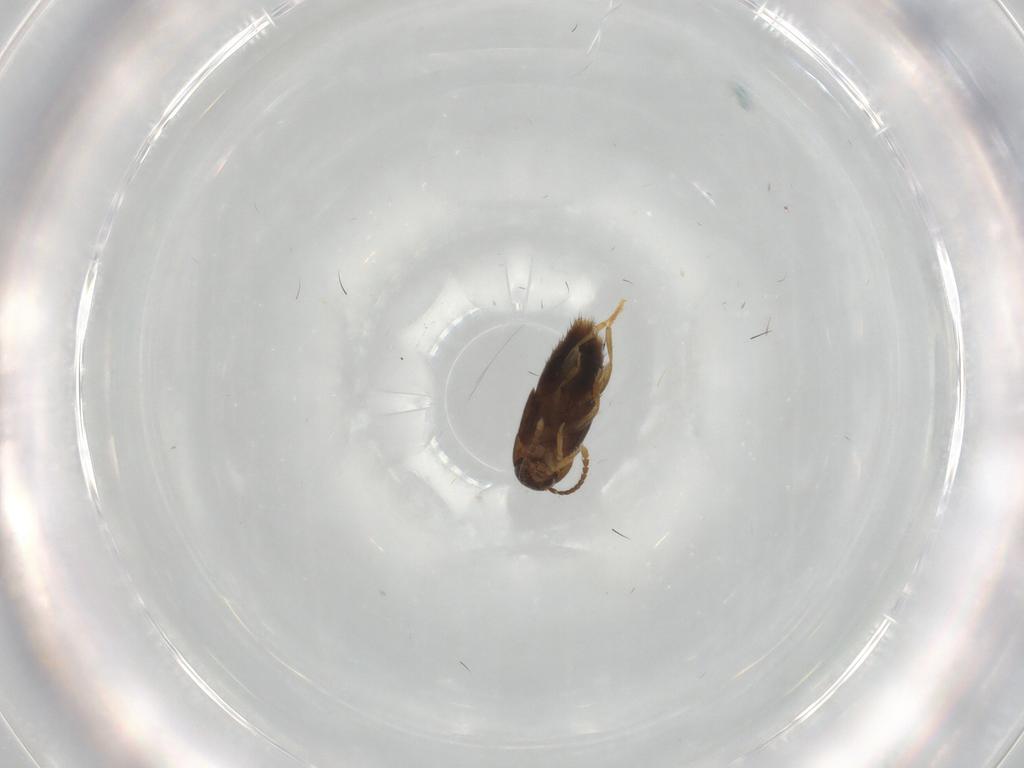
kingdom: Animalia
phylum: Arthropoda
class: Insecta
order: Coleoptera
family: Staphylinidae
